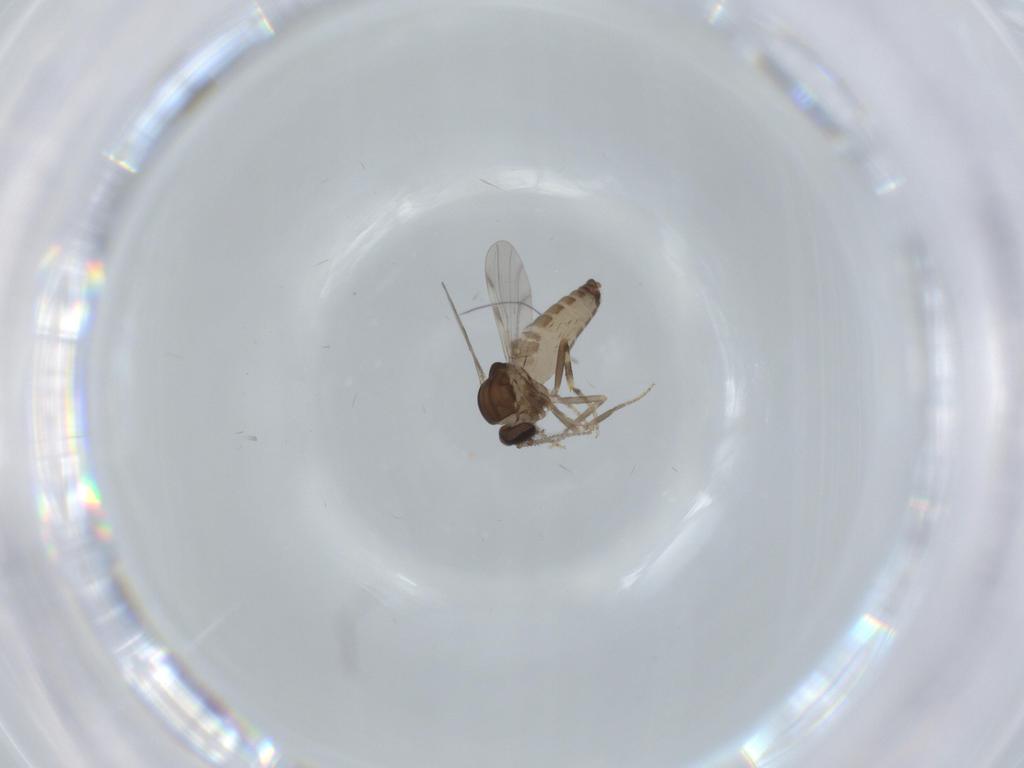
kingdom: Animalia
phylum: Arthropoda
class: Insecta
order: Diptera
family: Ceratopogonidae
